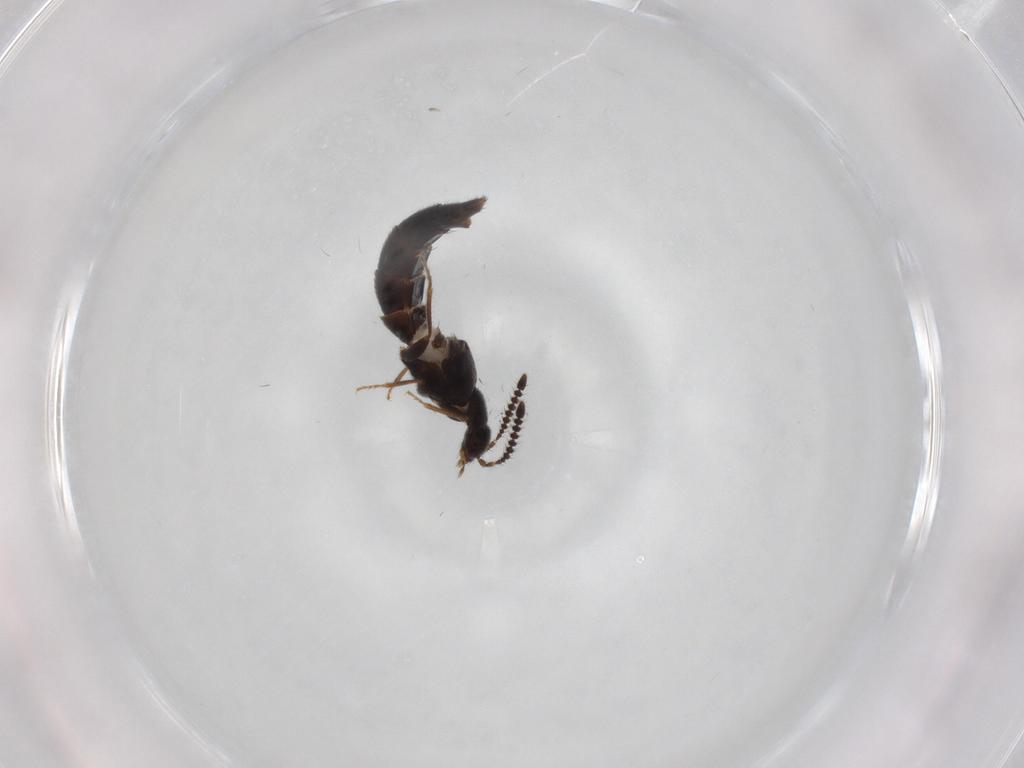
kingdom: Animalia
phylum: Arthropoda
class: Insecta
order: Coleoptera
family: Staphylinidae
